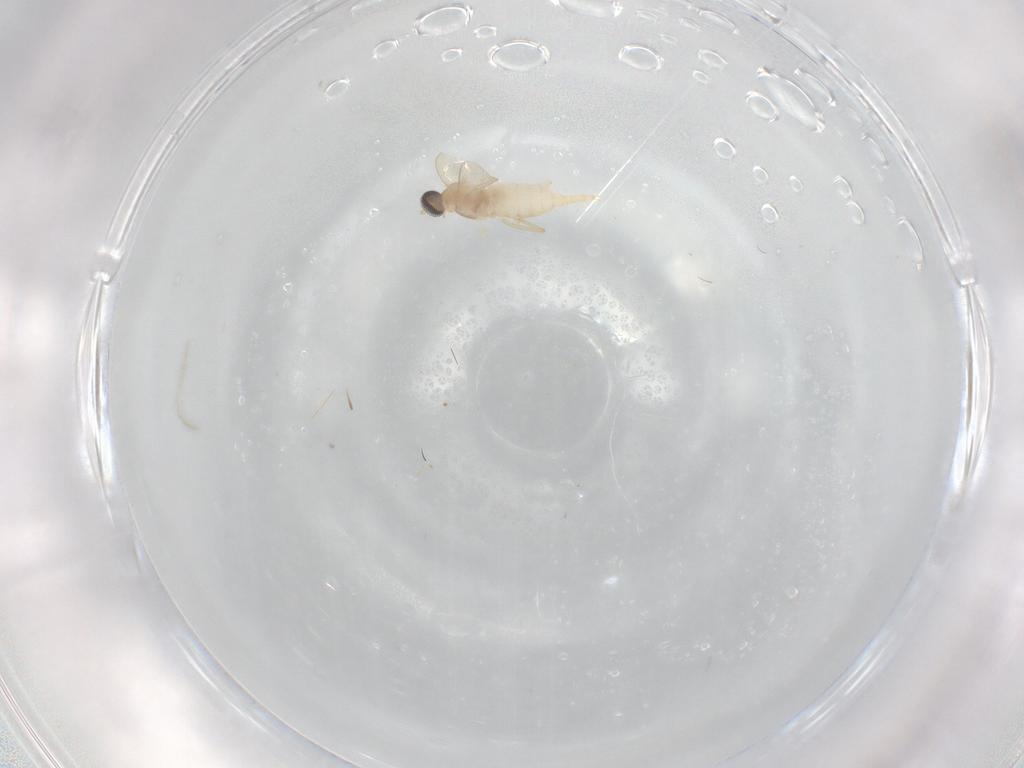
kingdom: Animalia
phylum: Arthropoda
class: Insecta
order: Diptera
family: Cecidomyiidae
